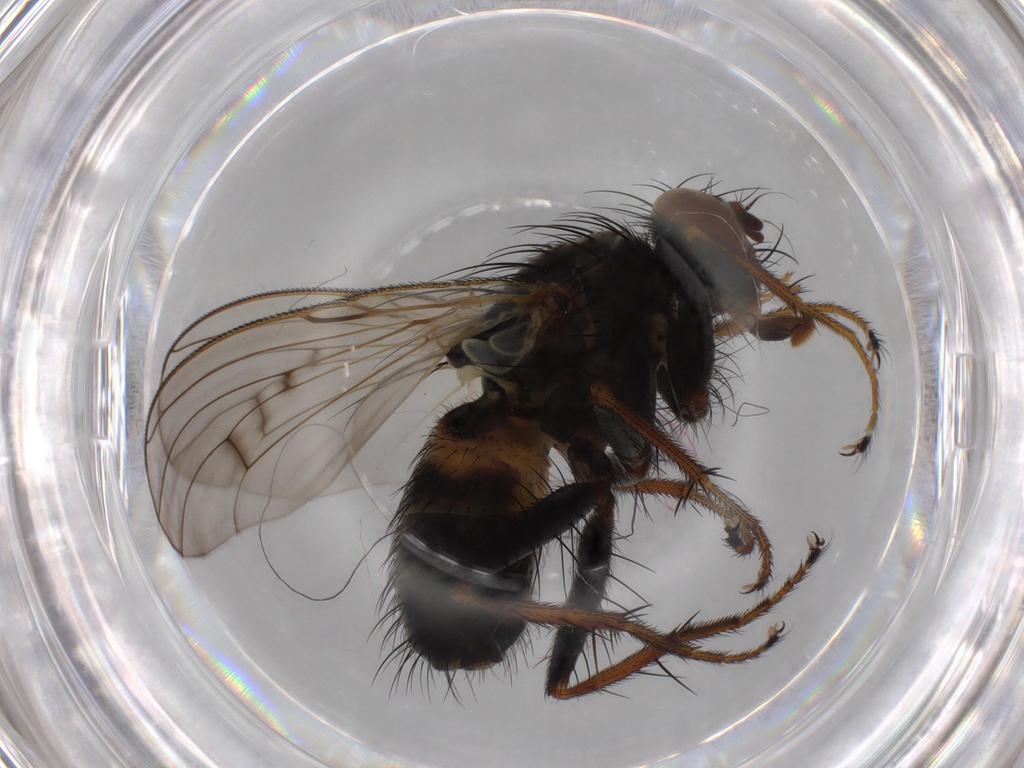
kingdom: Animalia
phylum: Arthropoda
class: Insecta
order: Diptera
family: Muscidae
